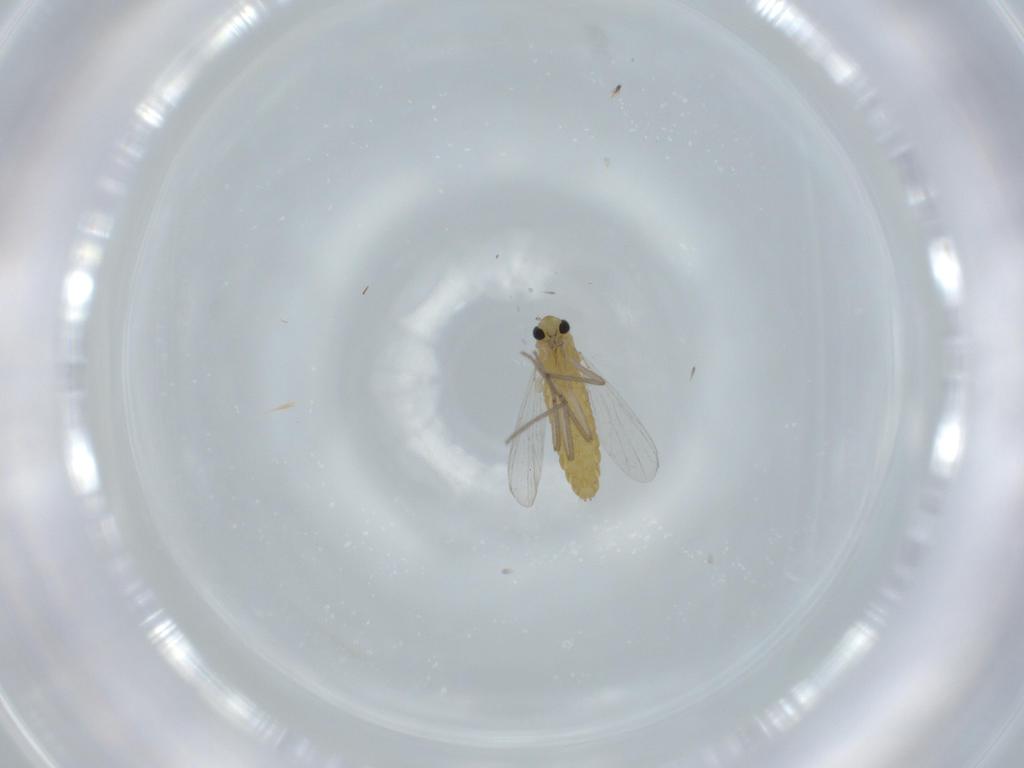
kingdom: Animalia
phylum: Arthropoda
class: Insecta
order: Diptera
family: Chironomidae
